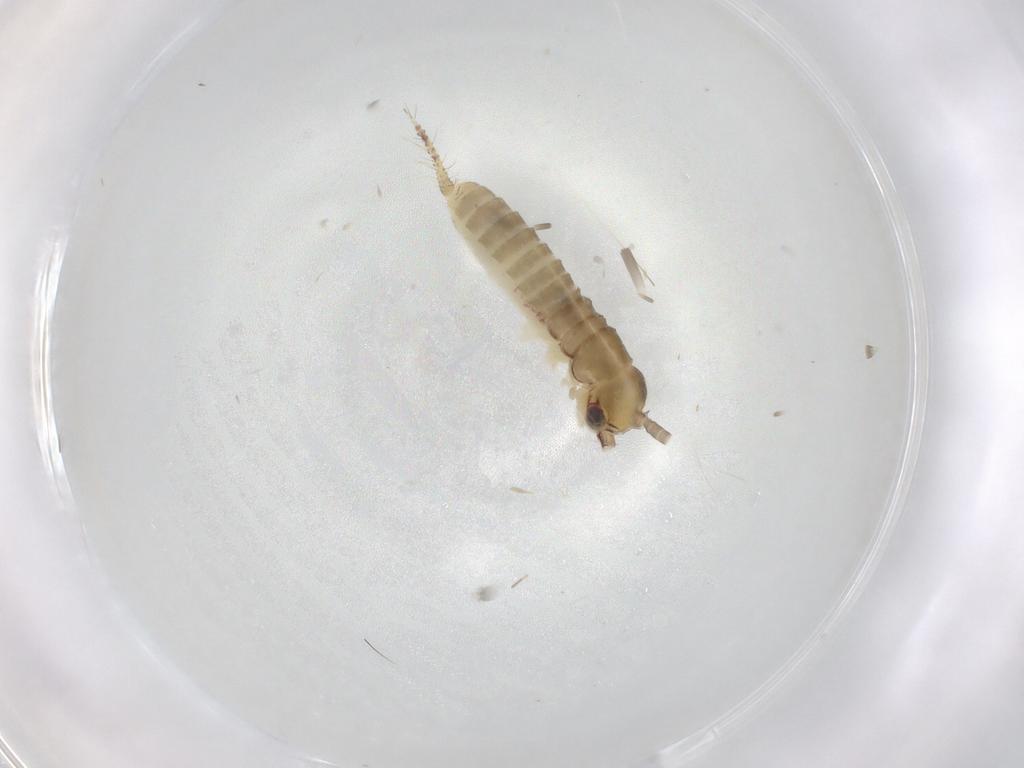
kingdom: Animalia
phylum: Arthropoda
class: Insecta
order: Orthoptera
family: Gryllidae
